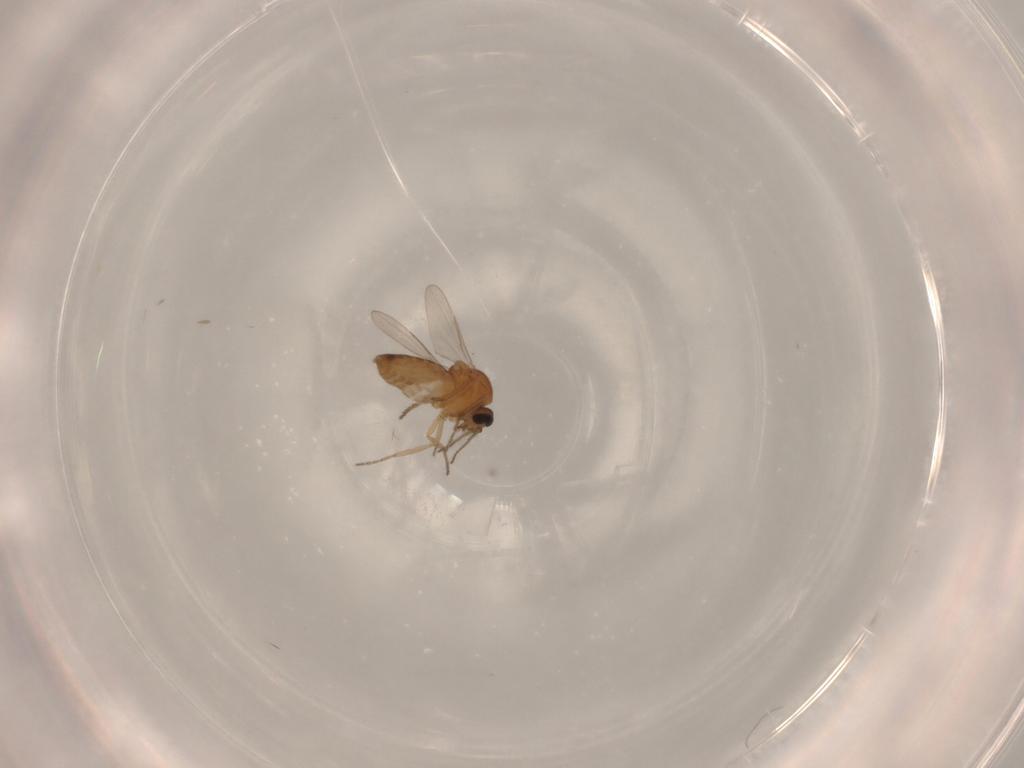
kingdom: Animalia
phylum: Arthropoda
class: Insecta
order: Diptera
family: Ceratopogonidae
